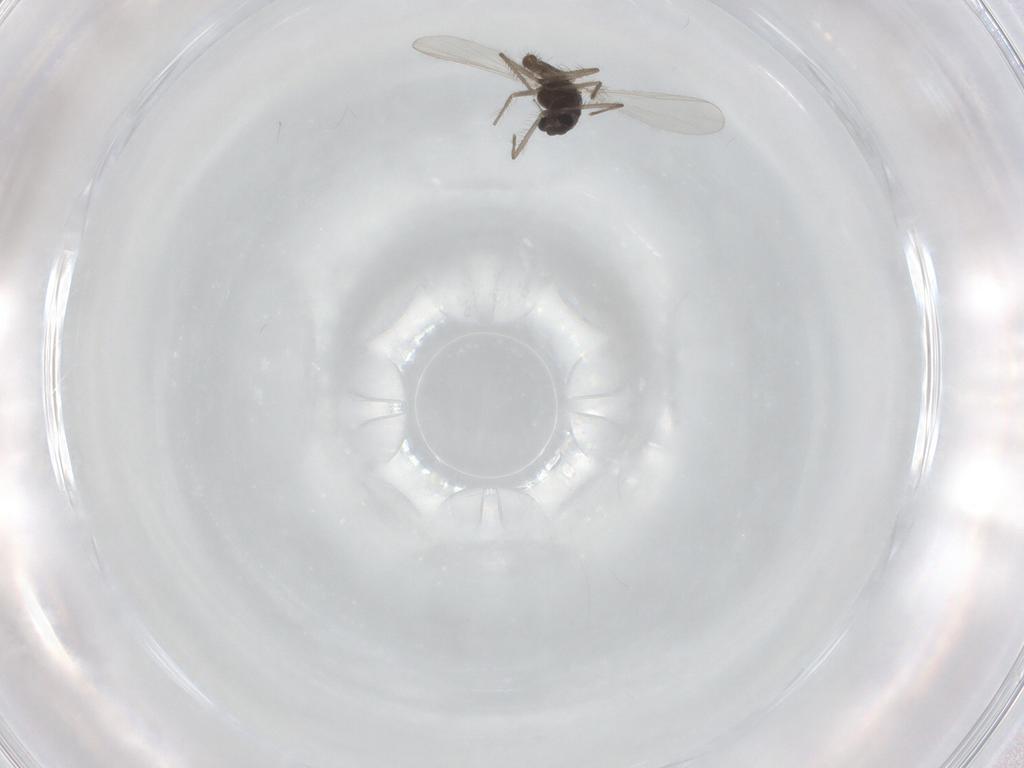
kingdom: Animalia
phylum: Arthropoda
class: Insecta
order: Diptera
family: Chironomidae
